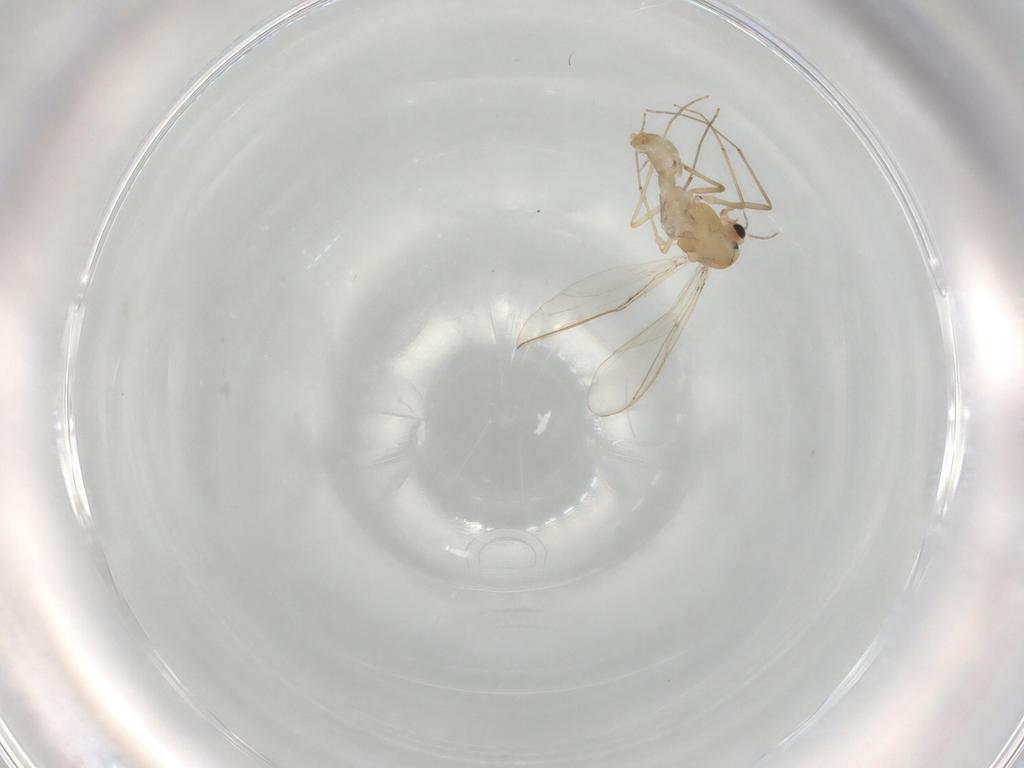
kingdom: Animalia
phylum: Arthropoda
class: Insecta
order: Diptera
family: Chironomidae
